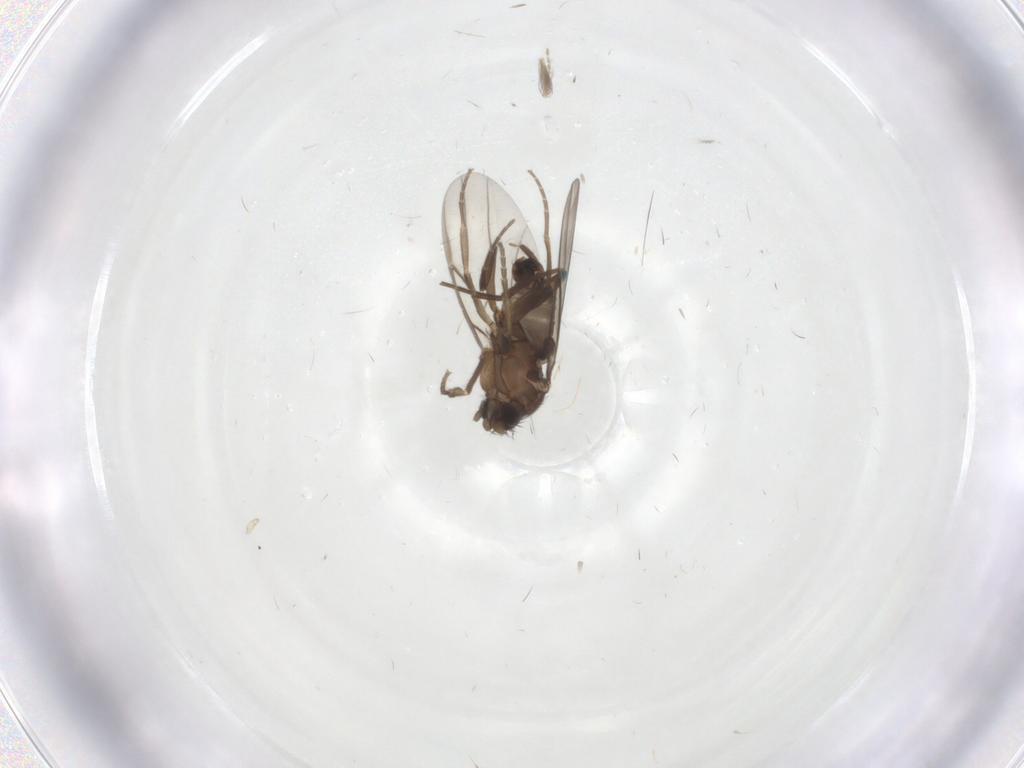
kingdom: Animalia
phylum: Arthropoda
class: Insecta
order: Diptera
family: Ceratopogonidae
